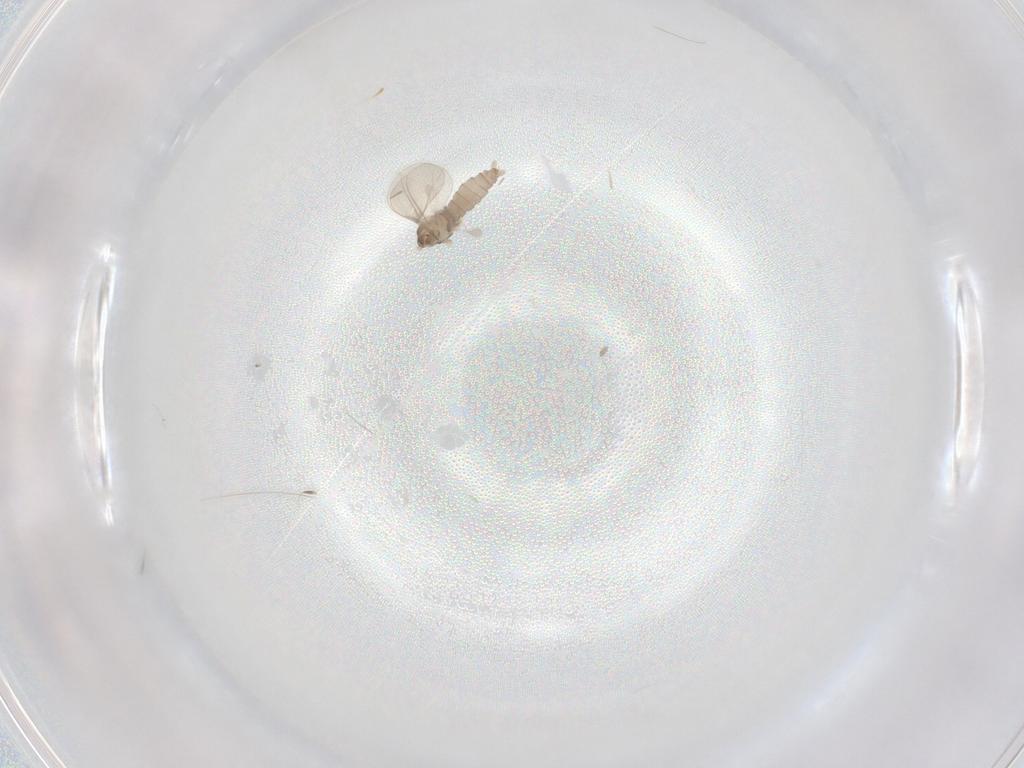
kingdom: Animalia
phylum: Arthropoda
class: Insecta
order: Diptera
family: Cecidomyiidae
